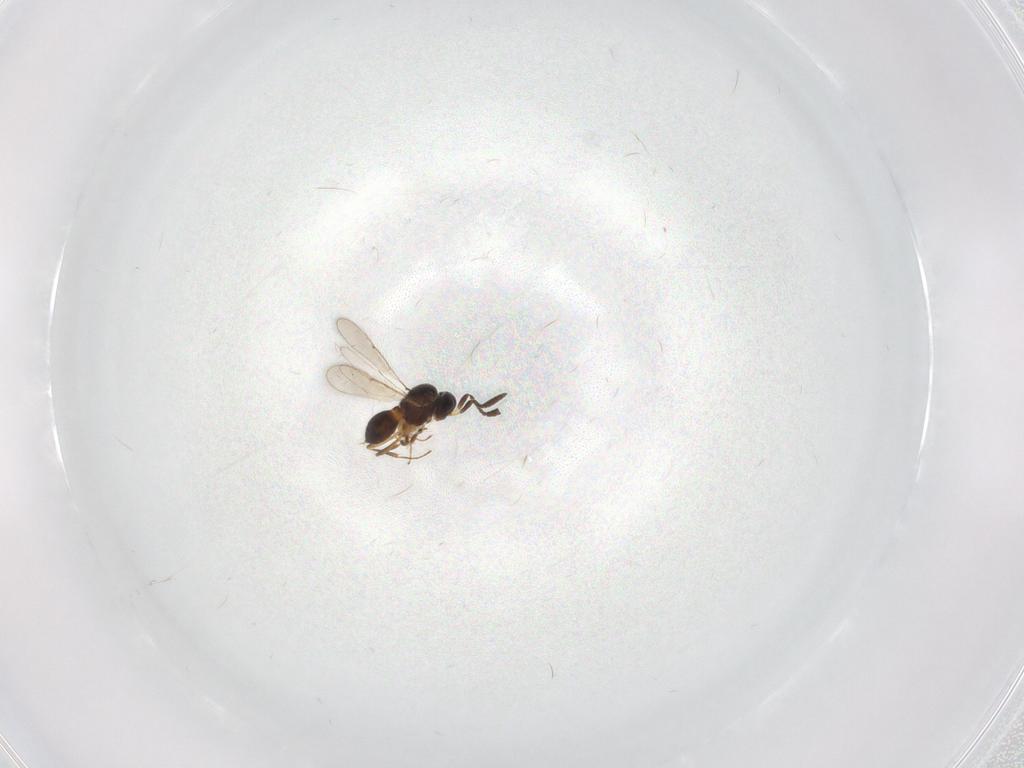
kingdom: Animalia
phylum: Arthropoda
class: Insecta
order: Hymenoptera
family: Scelionidae
